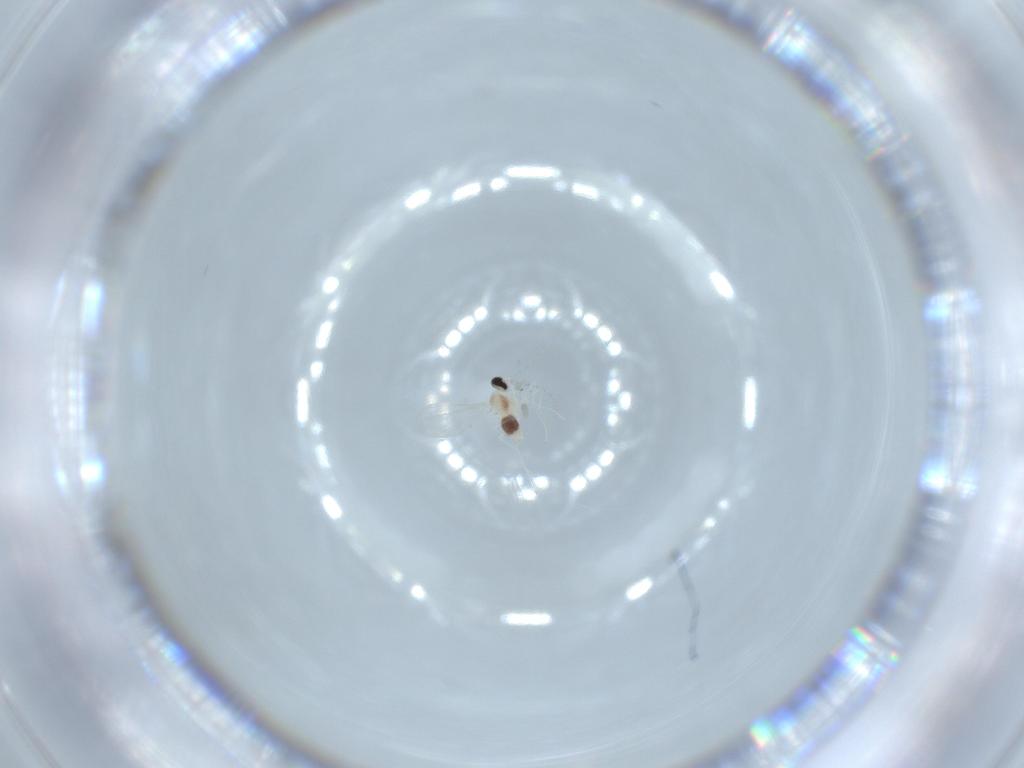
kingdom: Animalia
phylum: Arthropoda
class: Insecta
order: Diptera
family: Cecidomyiidae
